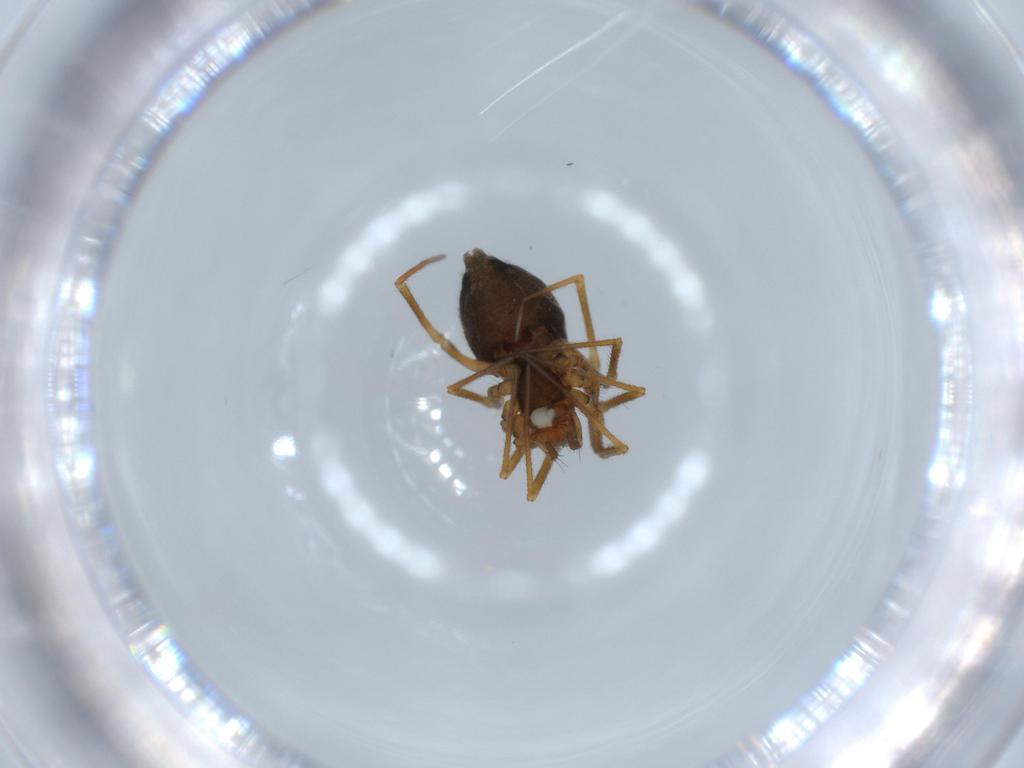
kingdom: Animalia
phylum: Arthropoda
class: Arachnida
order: Araneae
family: Linyphiidae
